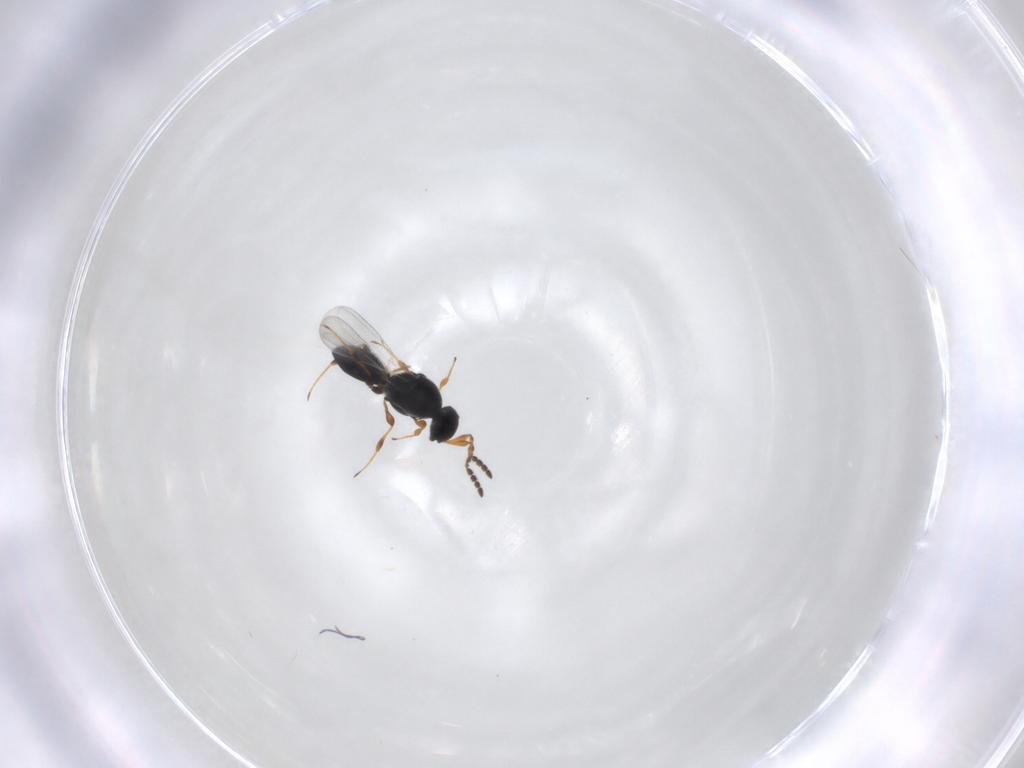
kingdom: Animalia
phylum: Arthropoda
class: Insecta
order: Hymenoptera
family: Platygastridae
